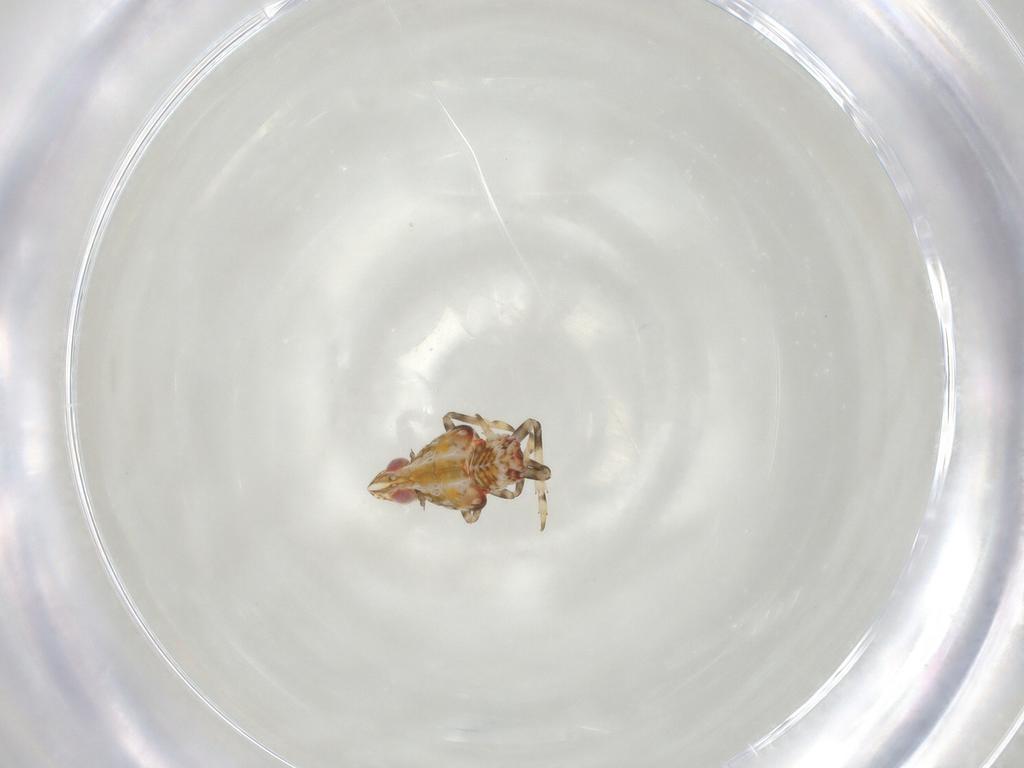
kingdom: Animalia
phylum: Arthropoda
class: Insecta
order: Hemiptera
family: Tropiduchidae
